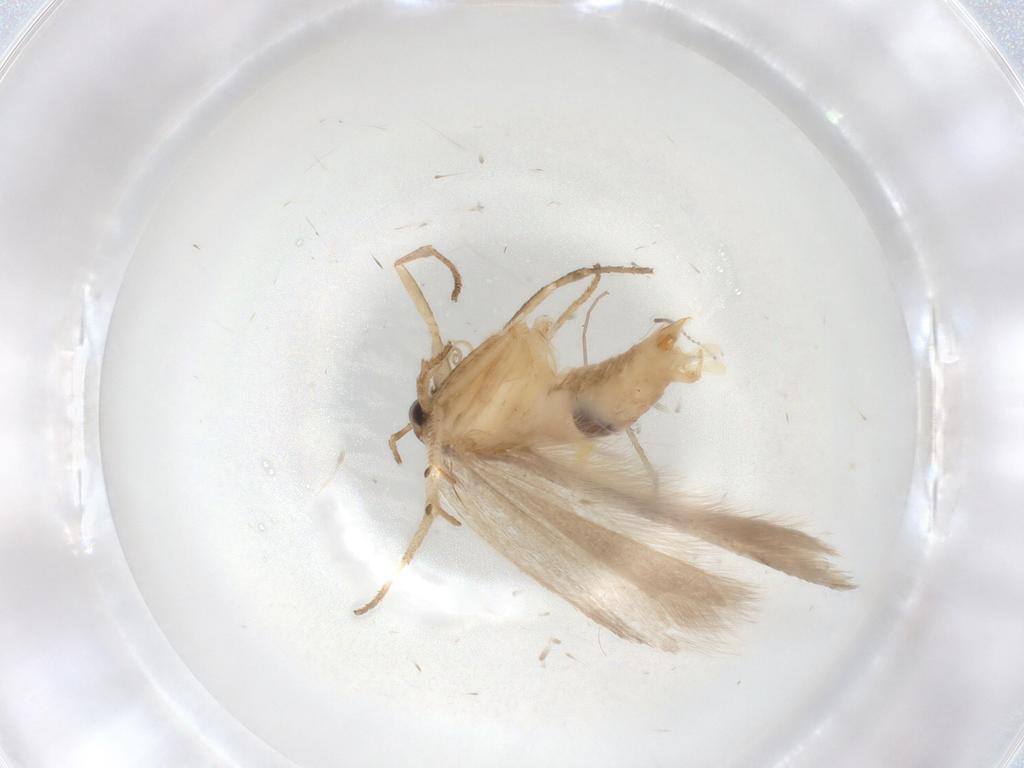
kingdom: Animalia
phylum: Arthropoda
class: Insecta
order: Lepidoptera
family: Gelechiidae
